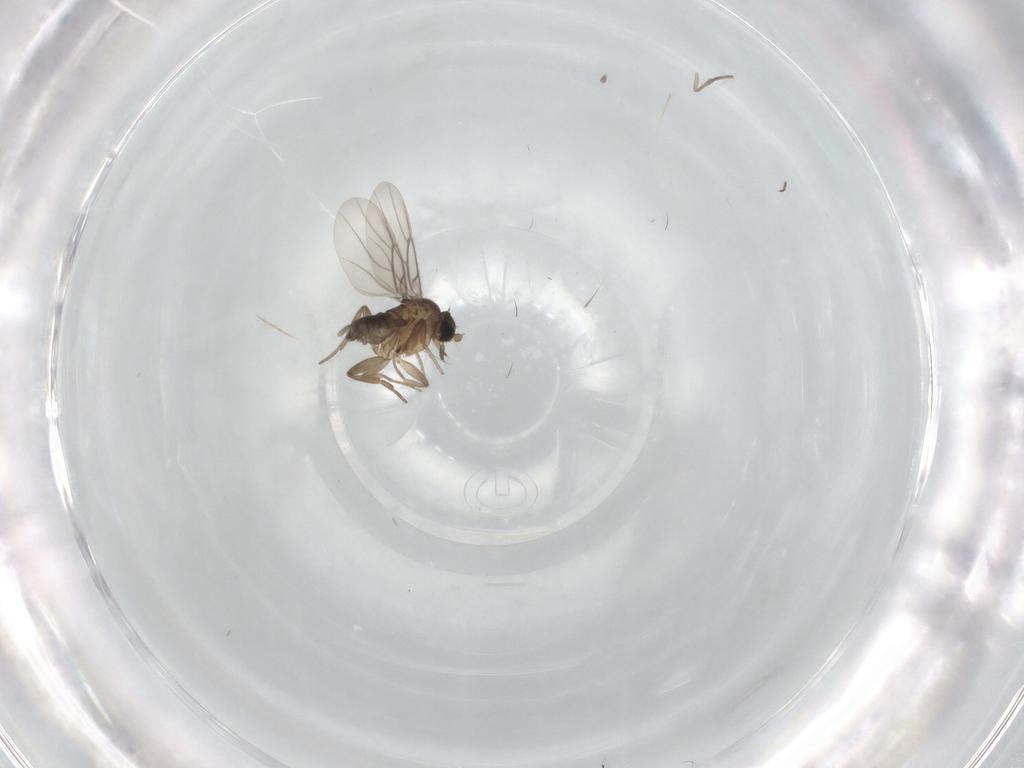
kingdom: Animalia
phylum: Arthropoda
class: Insecta
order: Diptera
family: Phoridae
